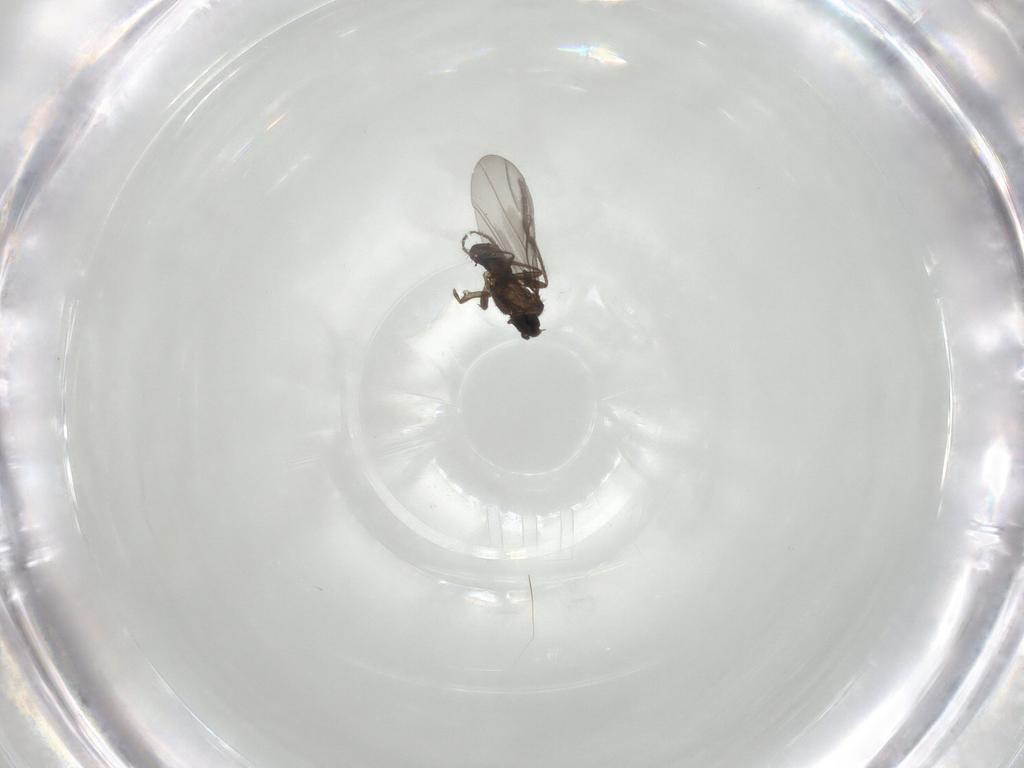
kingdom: Animalia
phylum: Arthropoda
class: Insecta
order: Diptera
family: Phoridae
